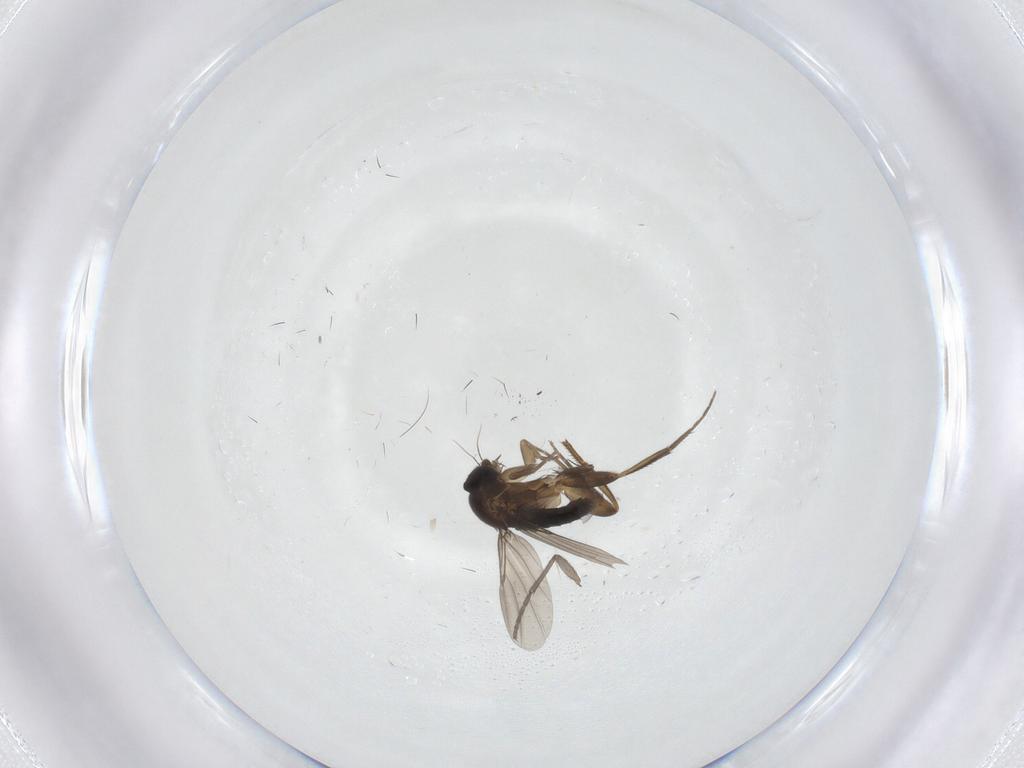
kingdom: Animalia
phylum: Arthropoda
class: Insecta
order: Diptera
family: Phoridae
